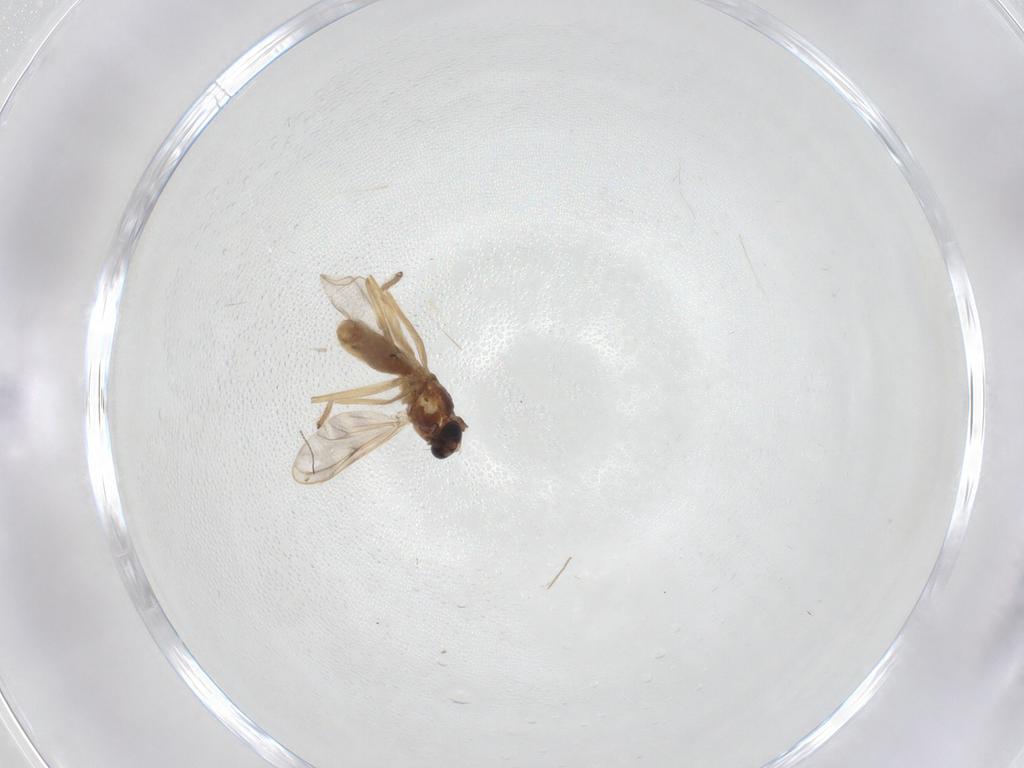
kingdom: Animalia
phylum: Arthropoda
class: Insecta
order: Diptera
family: Chironomidae
